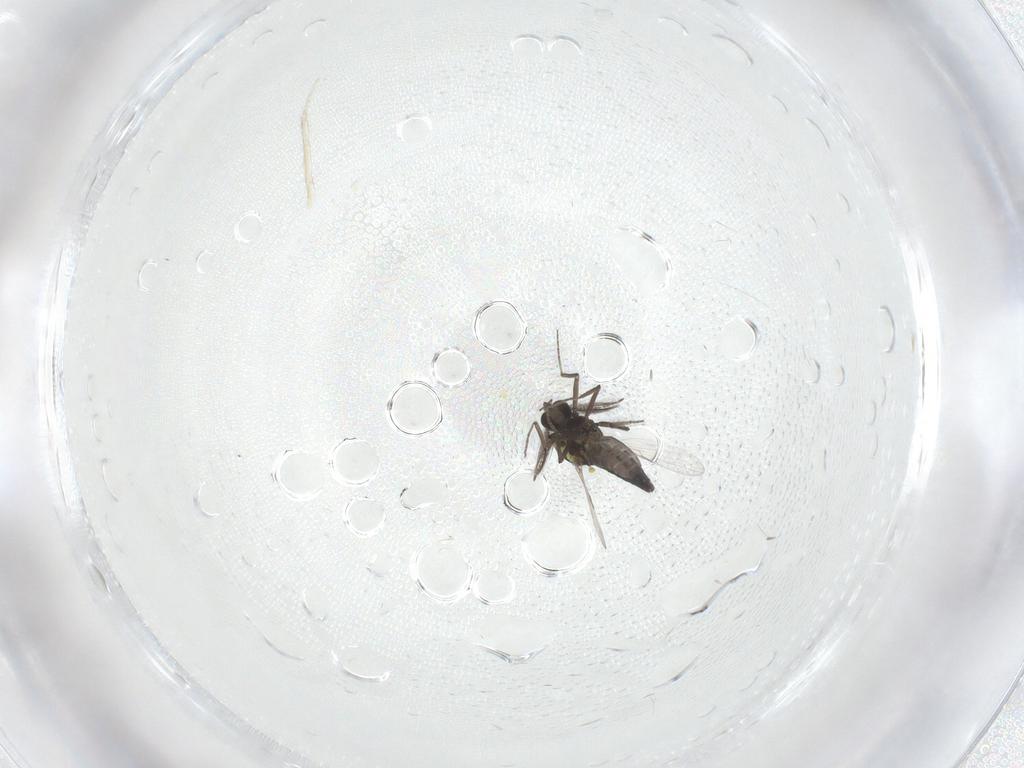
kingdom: Animalia
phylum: Arthropoda
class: Insecta
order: Diptera
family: Ceratopogonidae
